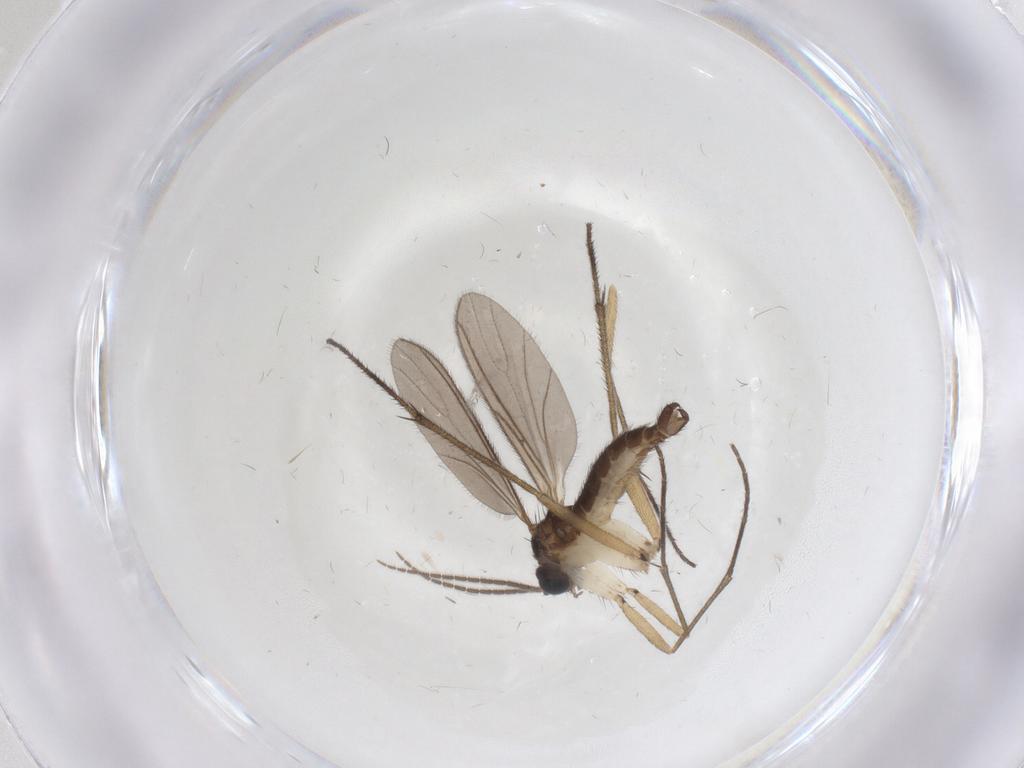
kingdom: Animalia
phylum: Arthropoda
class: Insecta
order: Diptera
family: Sciaridae
